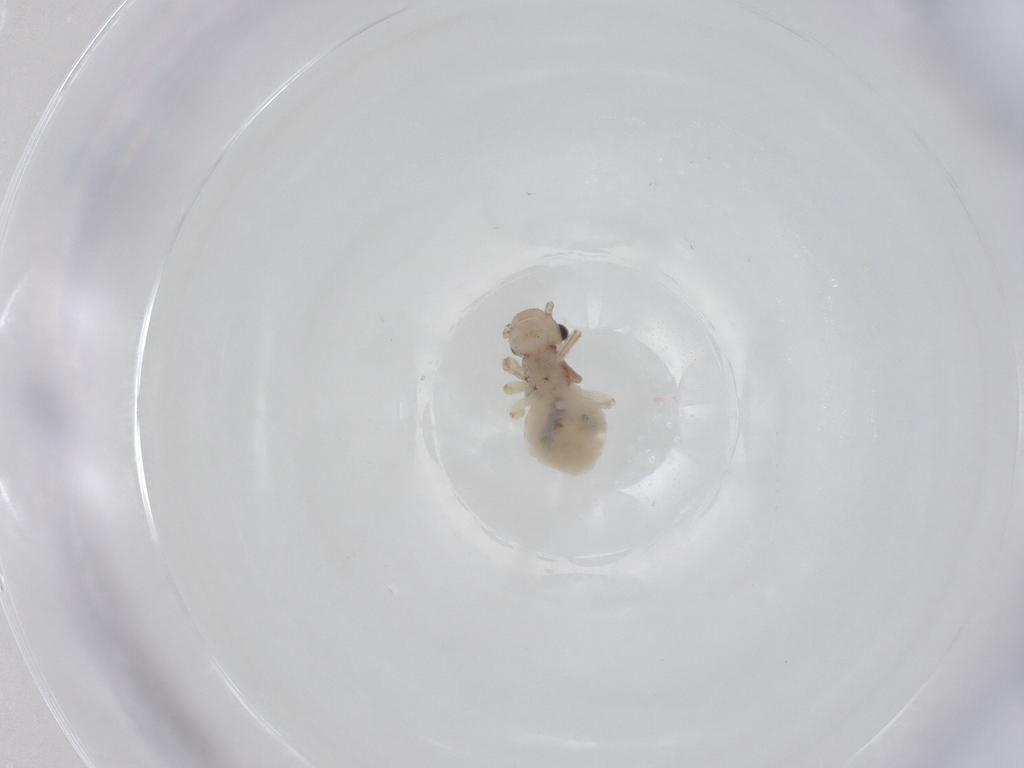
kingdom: Animalia
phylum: Arthropoda
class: Insecta
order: Psocodea
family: Amphipsocidae
